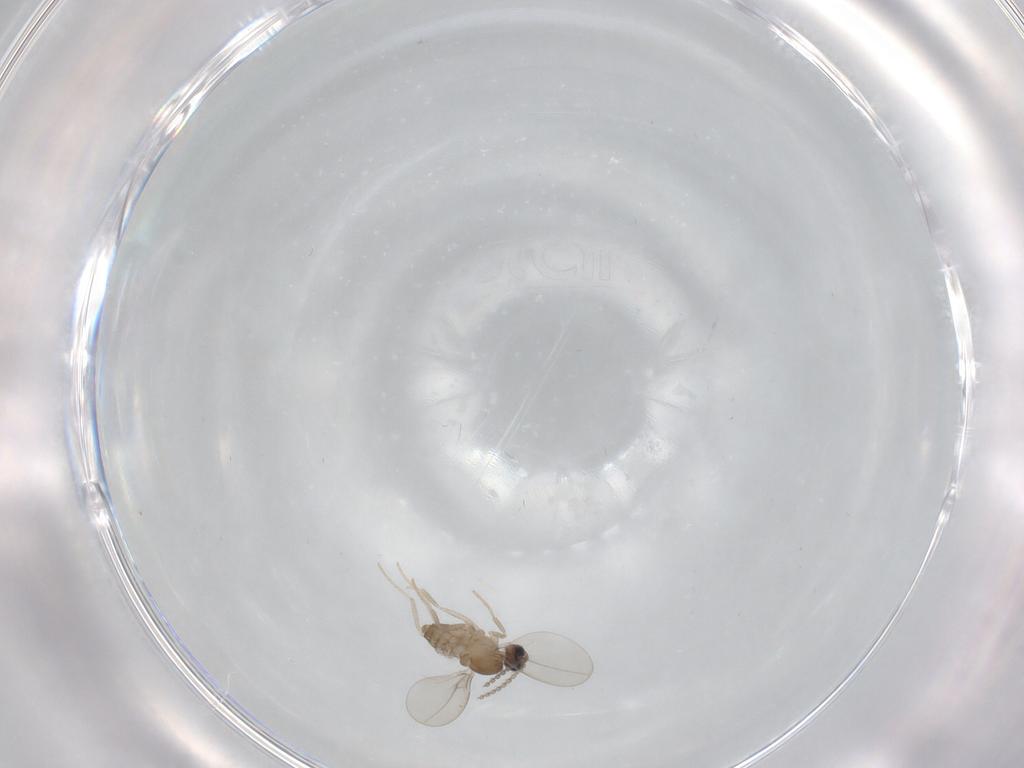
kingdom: Animalia
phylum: Arthropoda
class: Insecta
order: Diptera
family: Cecidomyiidae
